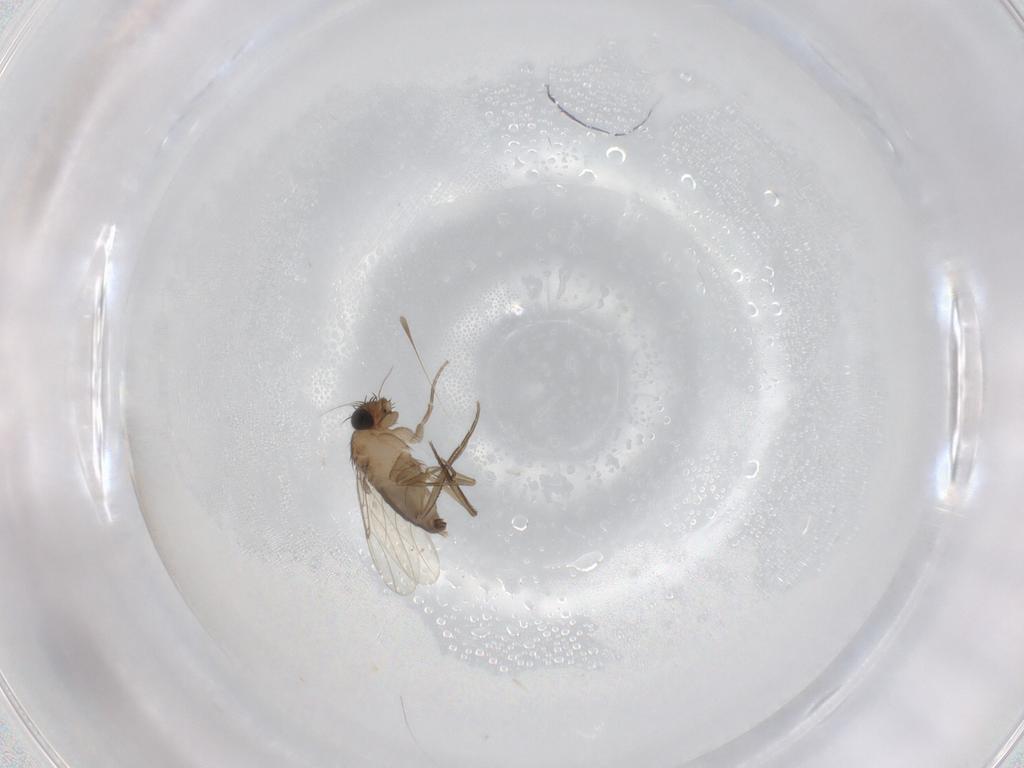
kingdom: Animalia
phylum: Arthropoda
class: Insecta
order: Diptera
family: Phoridae
